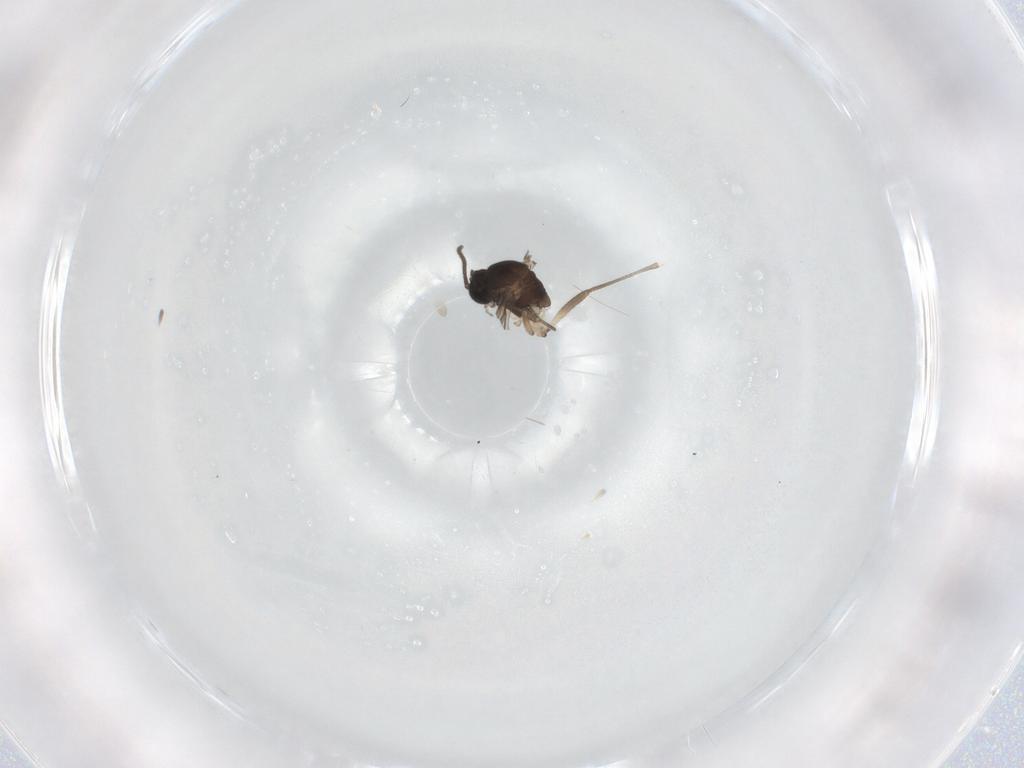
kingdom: Animalia
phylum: Arthropoda
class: Insecta
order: Diptera
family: Sciaridae
